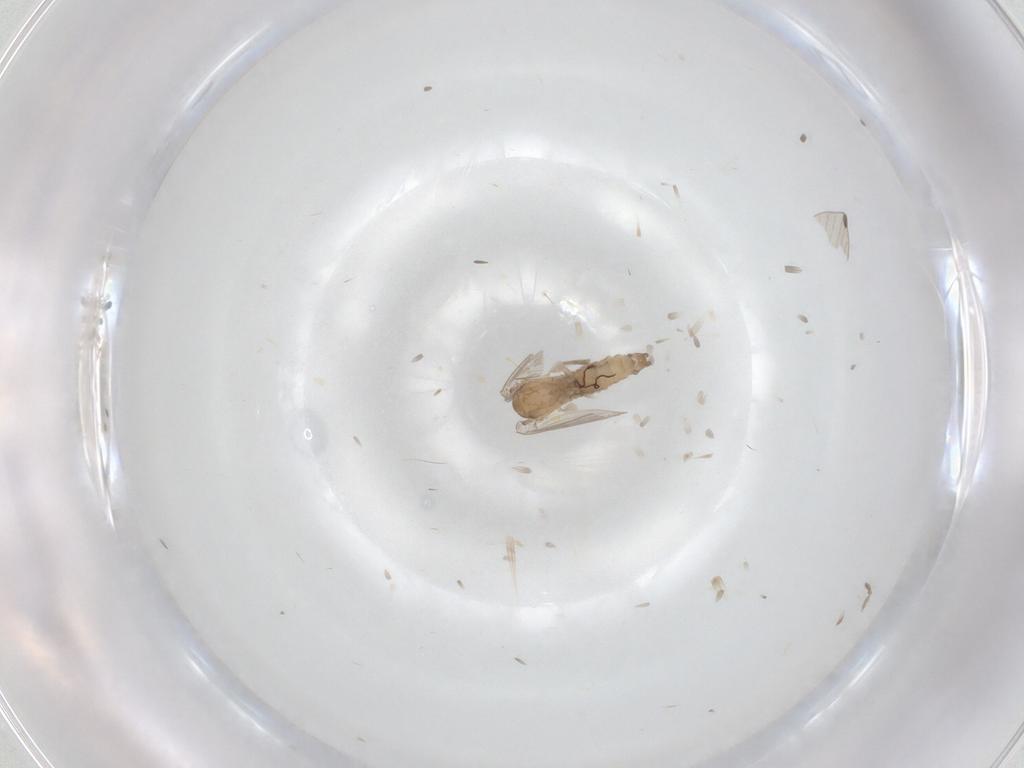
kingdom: Animalia
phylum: Arthropoda
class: Insecta
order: Diptera
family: Psychodidae
